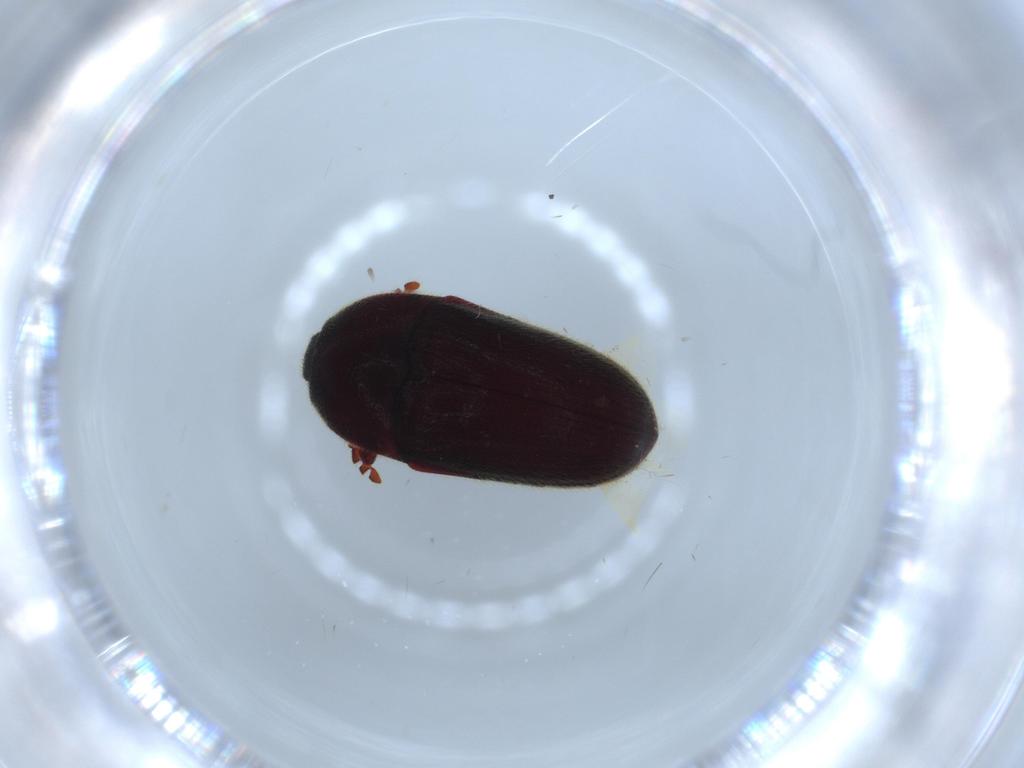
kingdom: Animalia
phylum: Arthropoda
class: Insecta
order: Coleoptera
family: Throscidae
